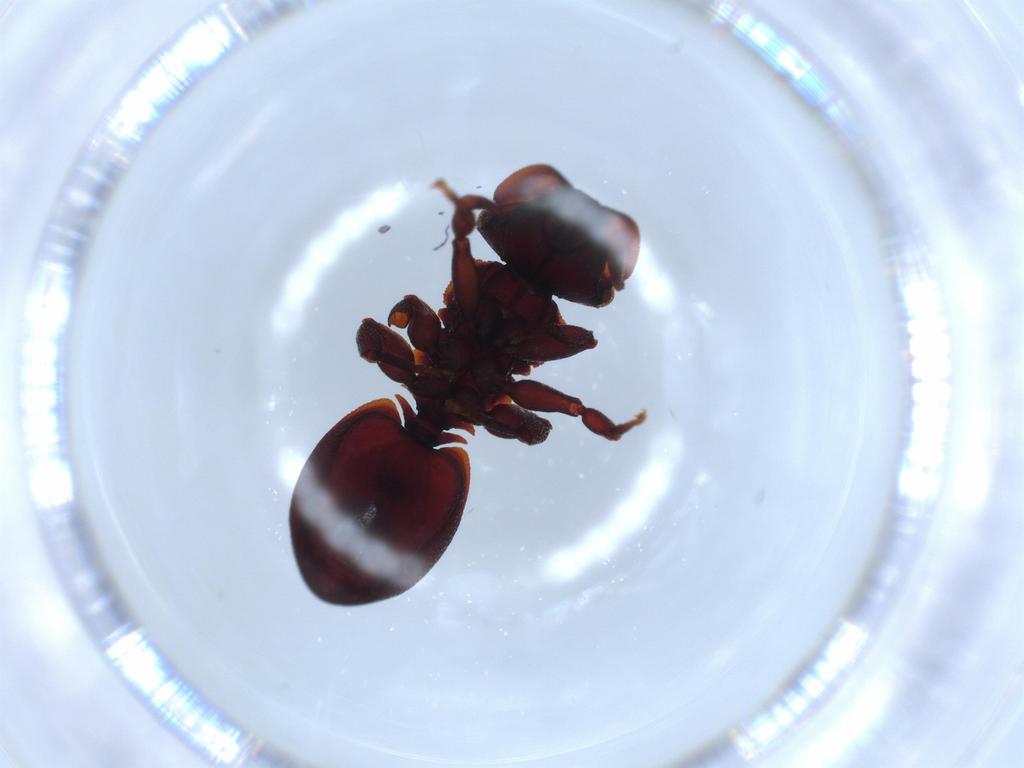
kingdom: Animalia
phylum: Arthropoda
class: Insecta
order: Hymenoptera
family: Formicidae
